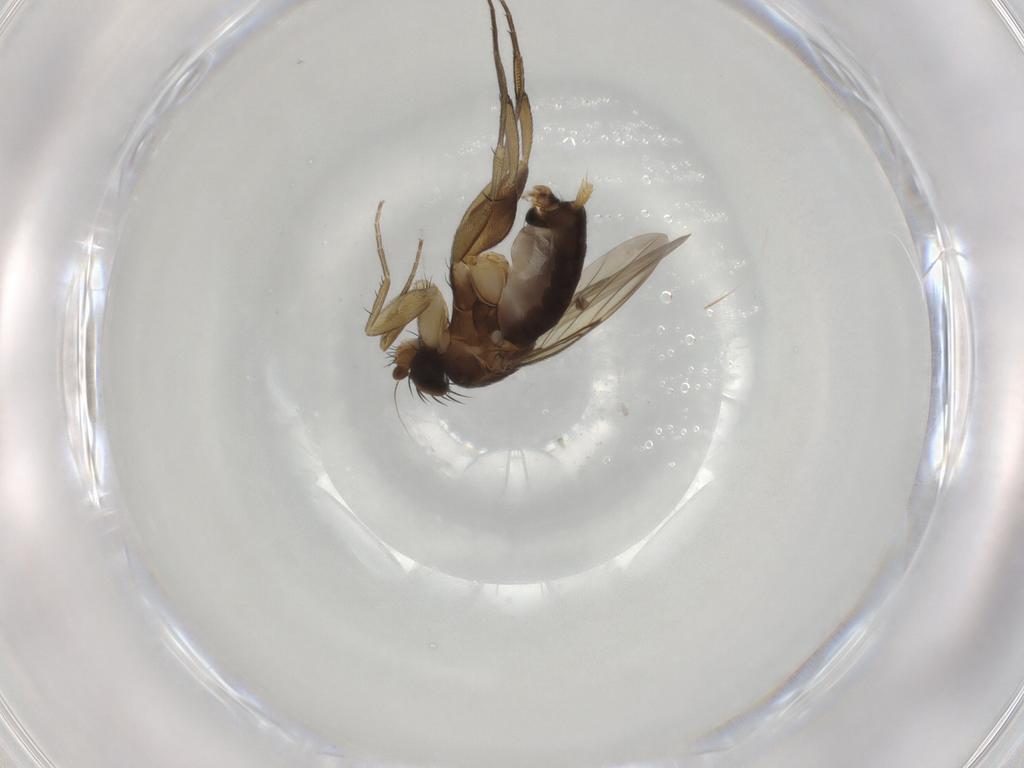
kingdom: Animalia
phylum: Arthropoda
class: Insecta
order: Diptera
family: Phoridae
